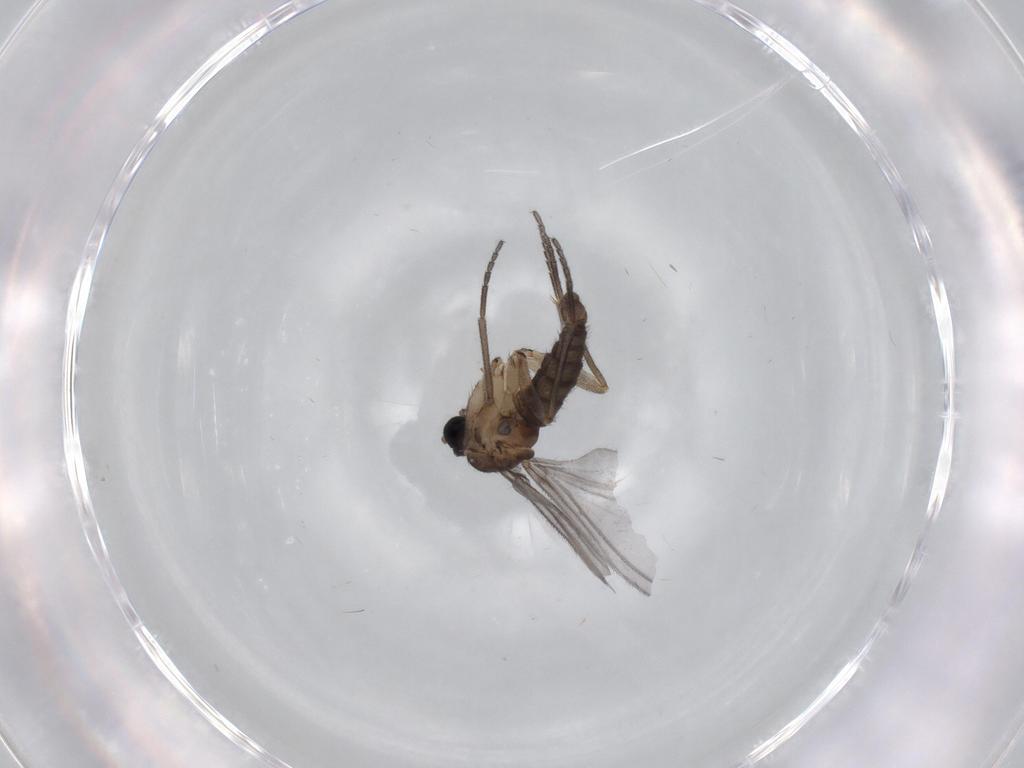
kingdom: Animalia
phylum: Arthropoda
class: Insecta
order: Diptera
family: Sciaridae
